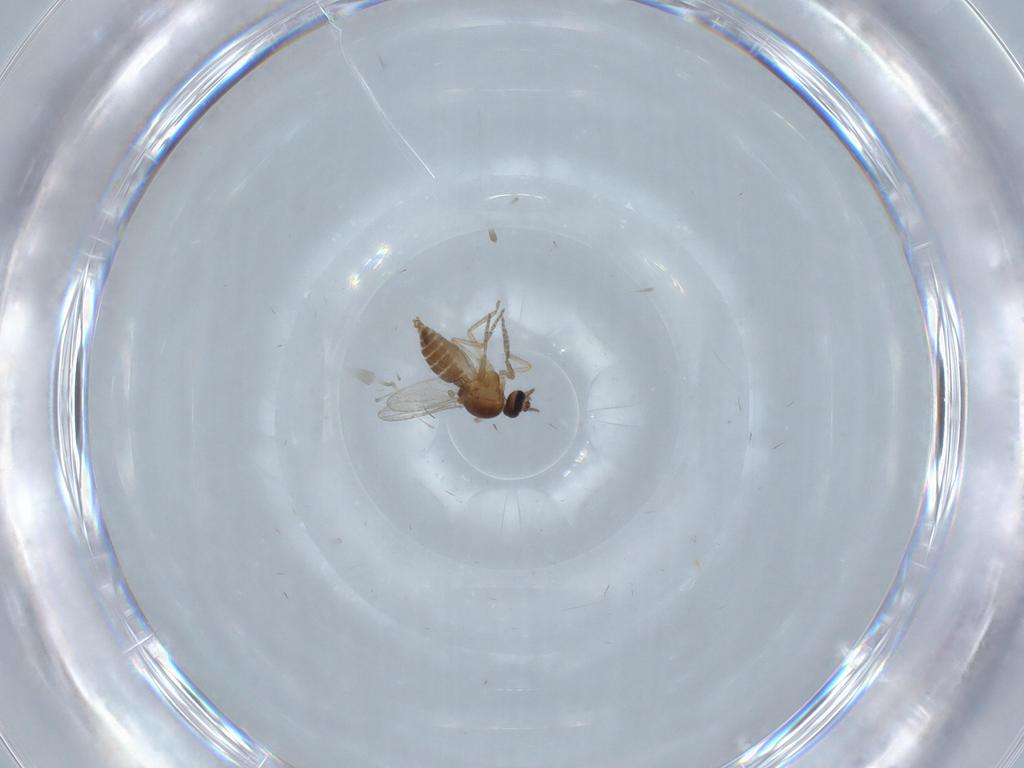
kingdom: Animalia
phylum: Arthropoda
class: Insecta
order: Diptera
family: Ceratopogonidae
